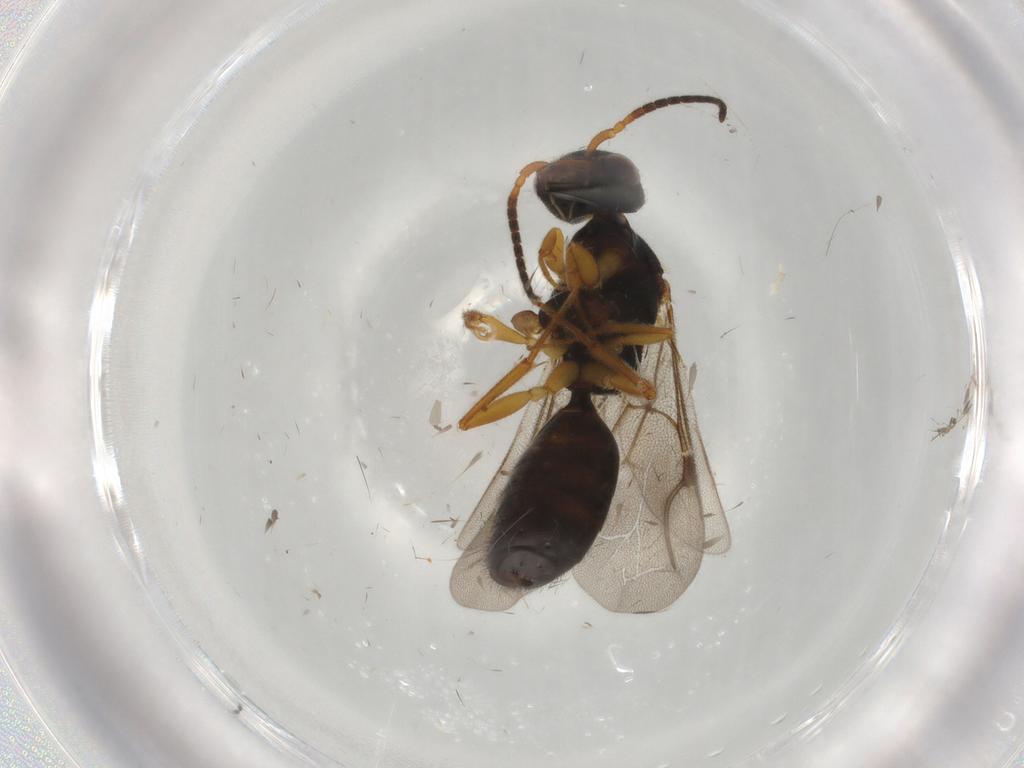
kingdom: Animalia
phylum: Arthropoda
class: Insecta
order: Hymenoptera
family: Bethylidae
